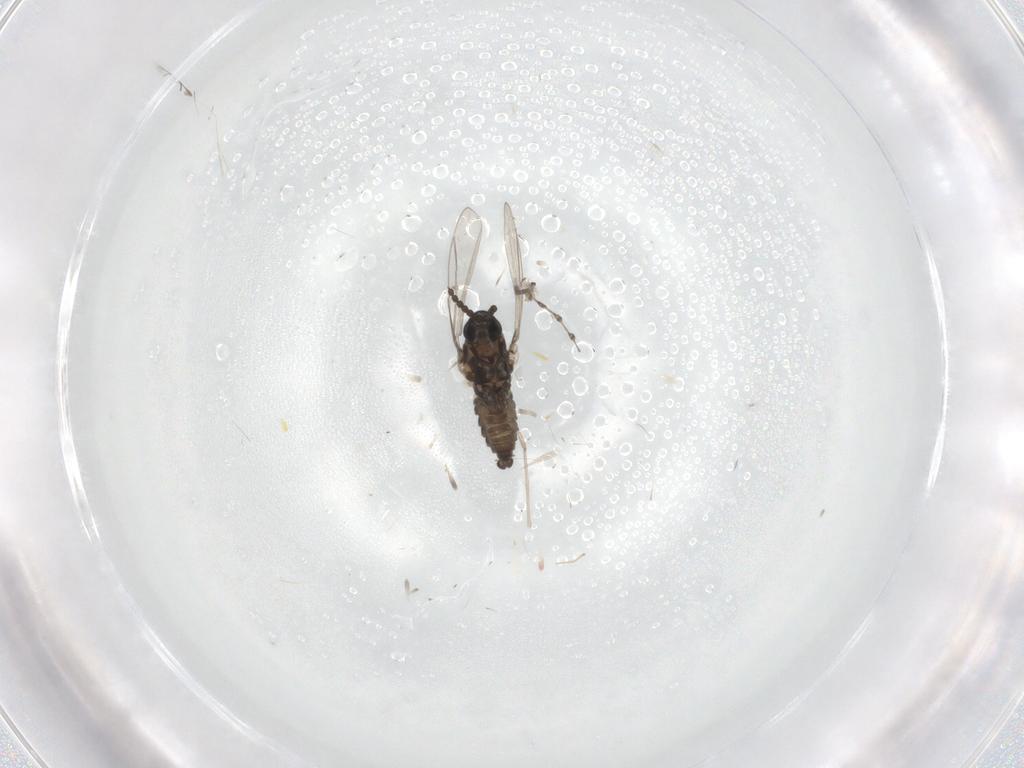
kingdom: Animalia
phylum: Arthropoda
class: Insecta
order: Diptera
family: Cecidomyiidae
